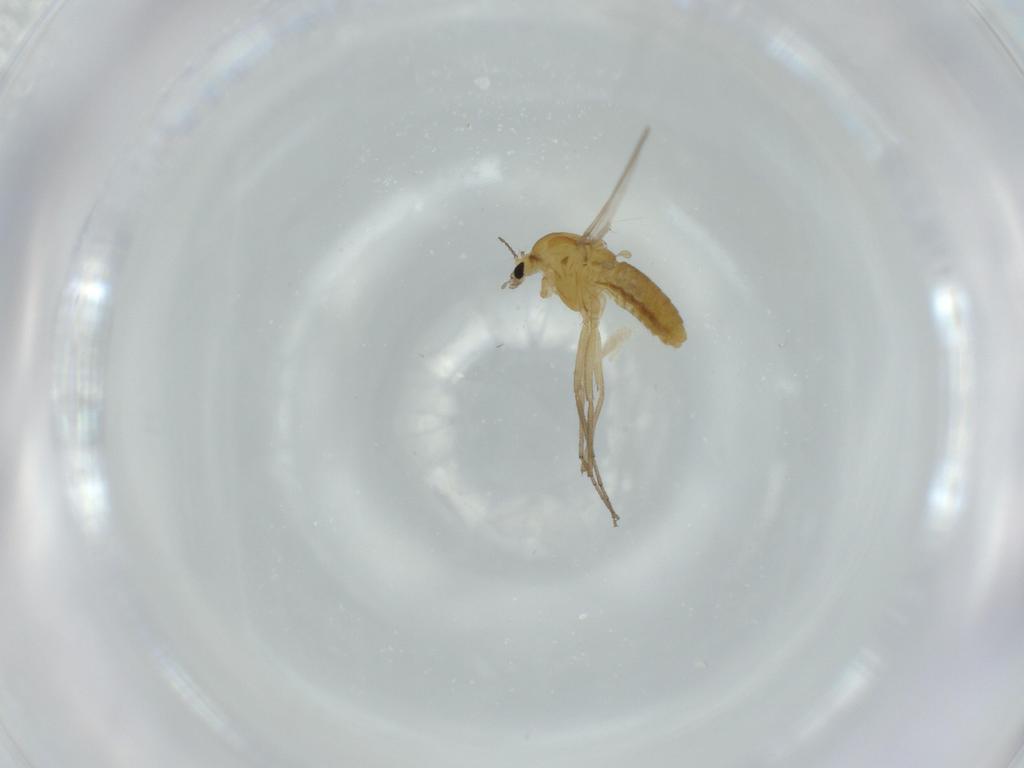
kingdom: Animalia
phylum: Arthropoda
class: Insecta
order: Diptera
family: Chironomidae
